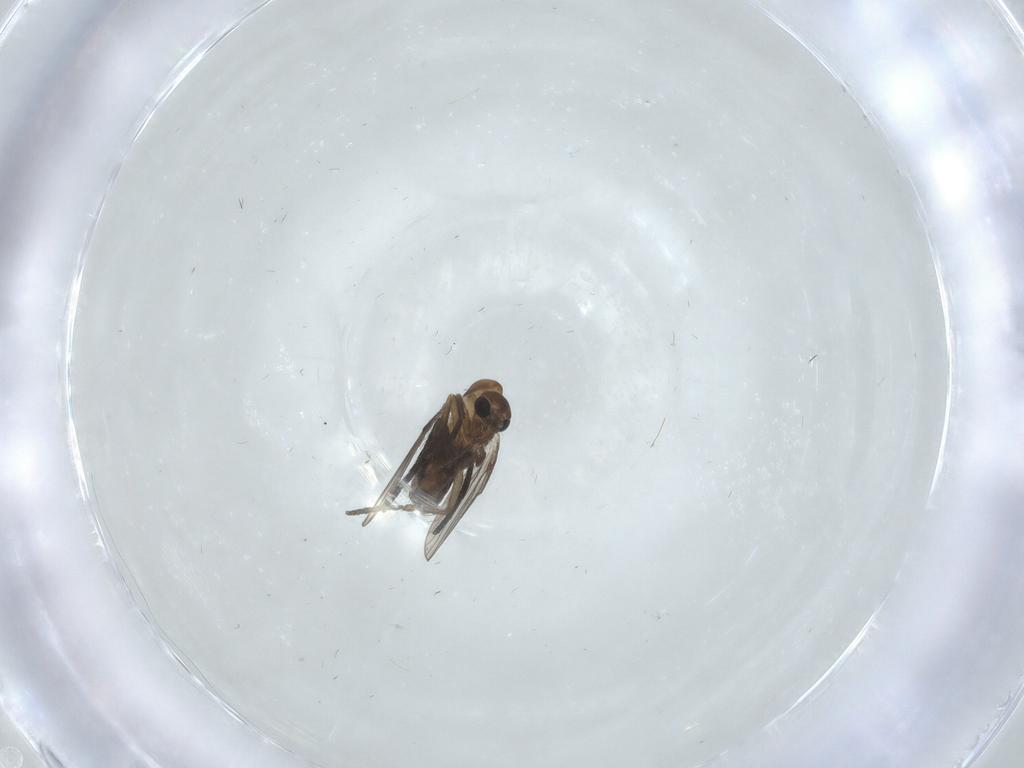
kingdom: Animalia
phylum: Arthropoda
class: Insecta
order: Diptera
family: Psychodidae
